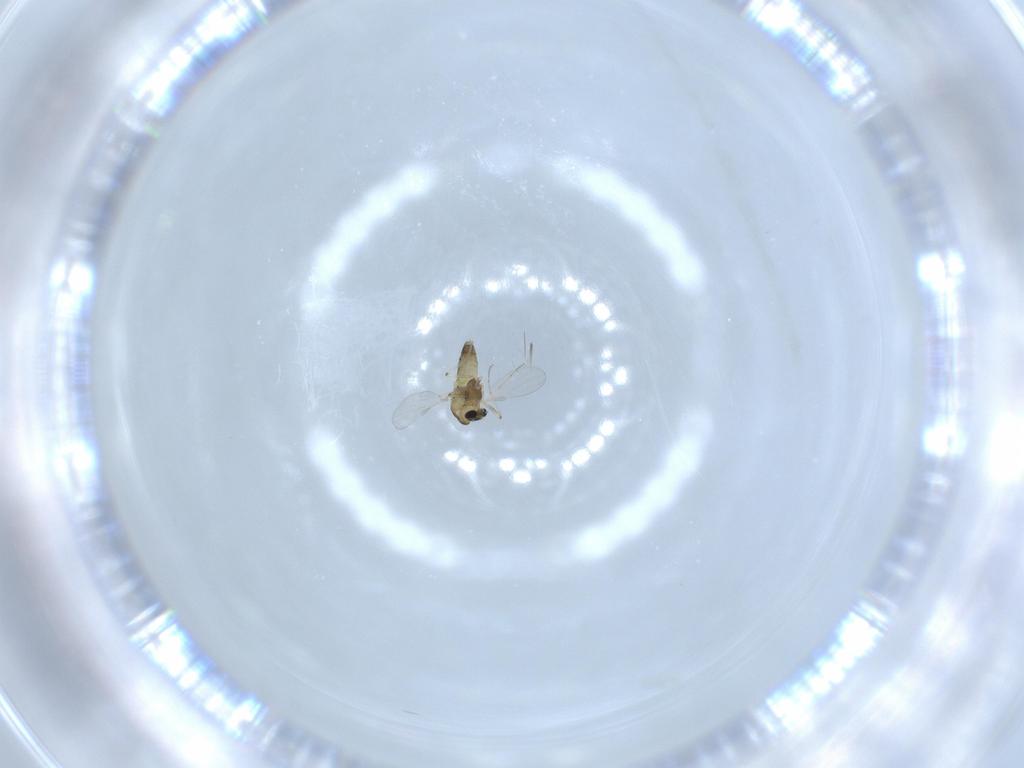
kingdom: Animalia
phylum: Arthropoda
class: Insecta
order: Diptera
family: Chironomidae
